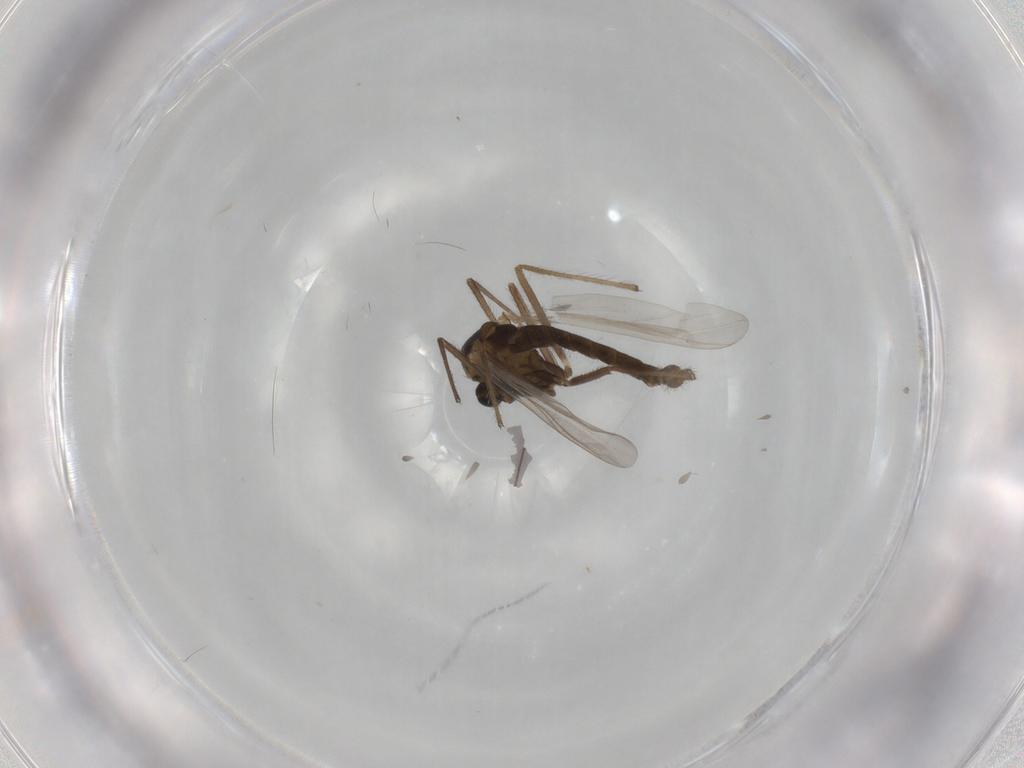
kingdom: Animalia
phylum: Arthropoda
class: Insecta
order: Diptera
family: Chironomidae
